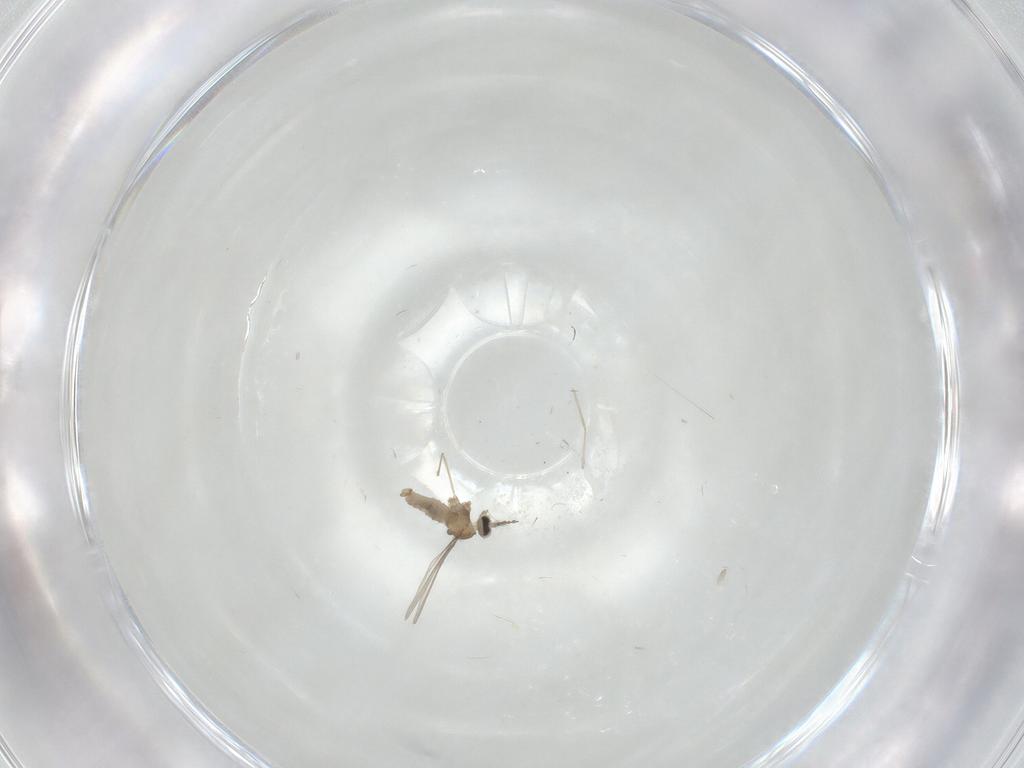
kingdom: Animalia
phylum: Arthropoda
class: Insecta
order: Diptera
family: Cecidomyiidae
